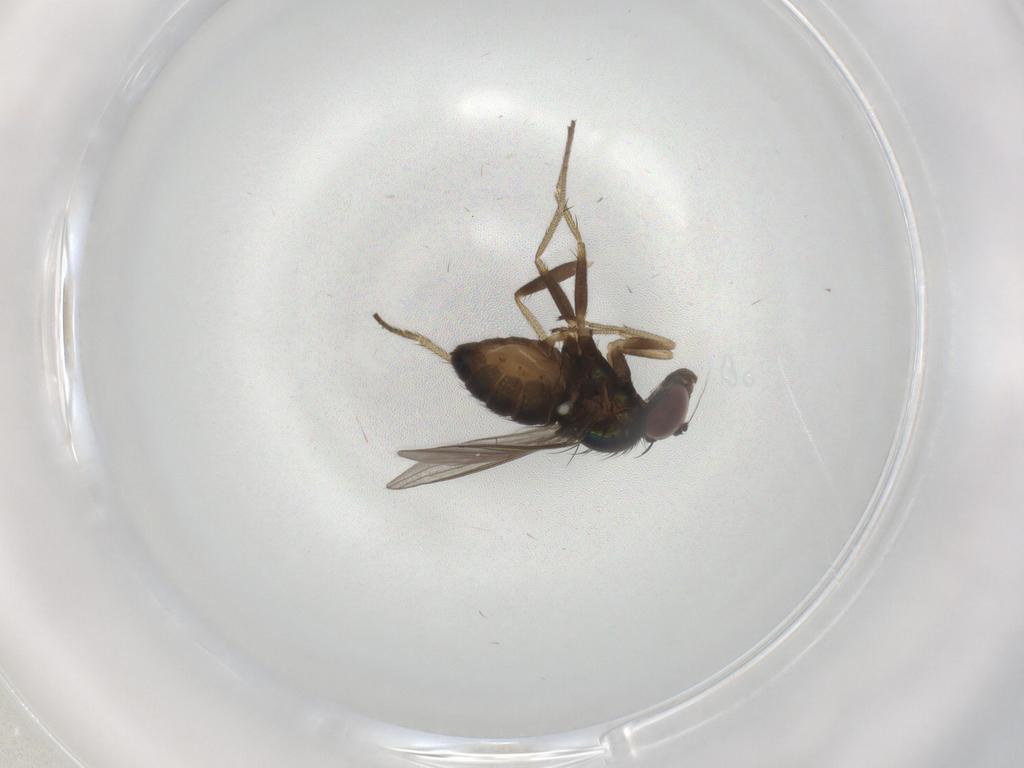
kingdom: Animalia
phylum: Arthropoda
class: Insecta
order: Diptera
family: Dolichopodidae
